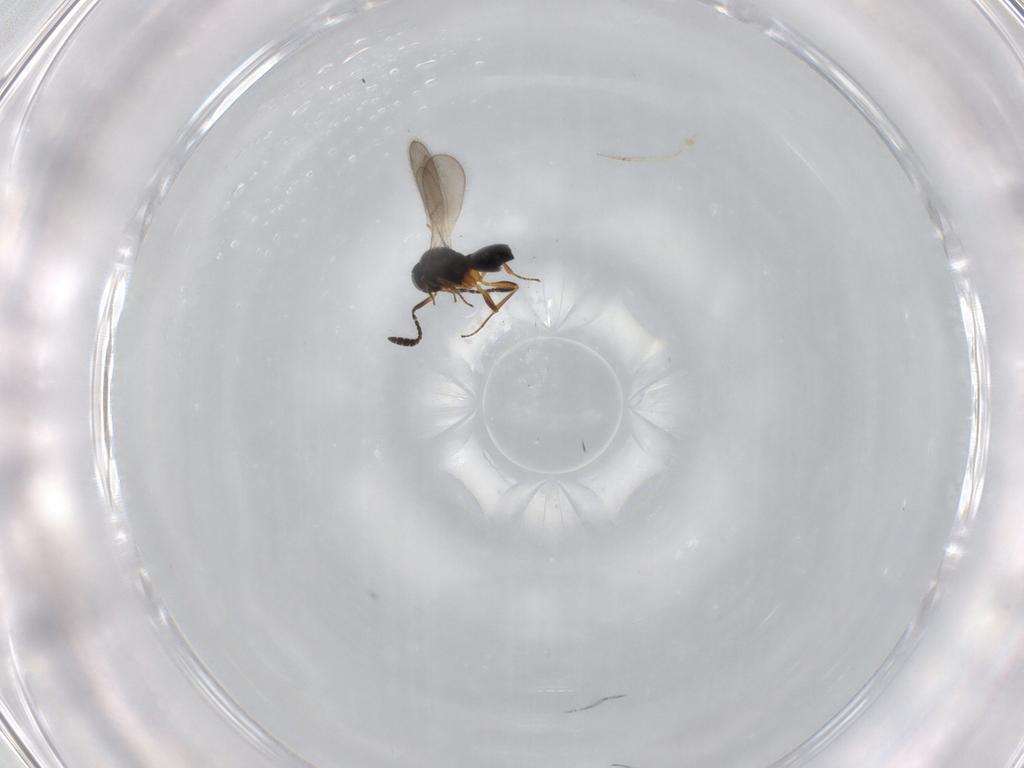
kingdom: Animalia
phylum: Arthropoda
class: Insecta
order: Hymenoptera
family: Scelionidae
